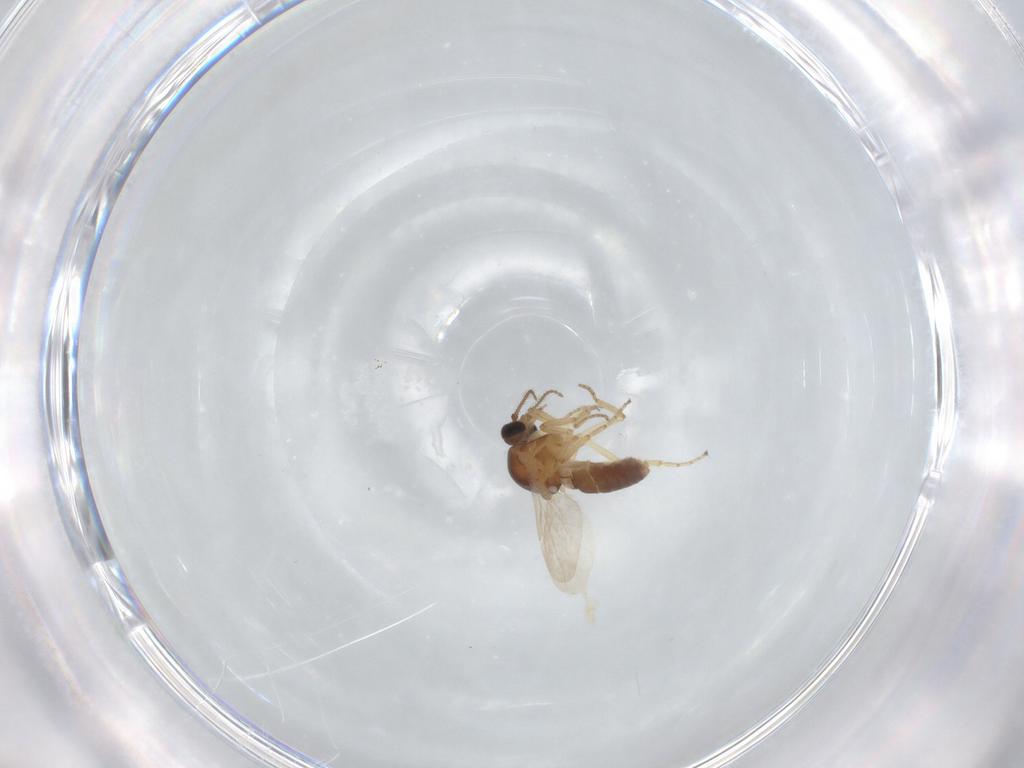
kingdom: Animalia
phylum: Arthropoda
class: Insecta
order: Diptera
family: Ceratopogonidae
